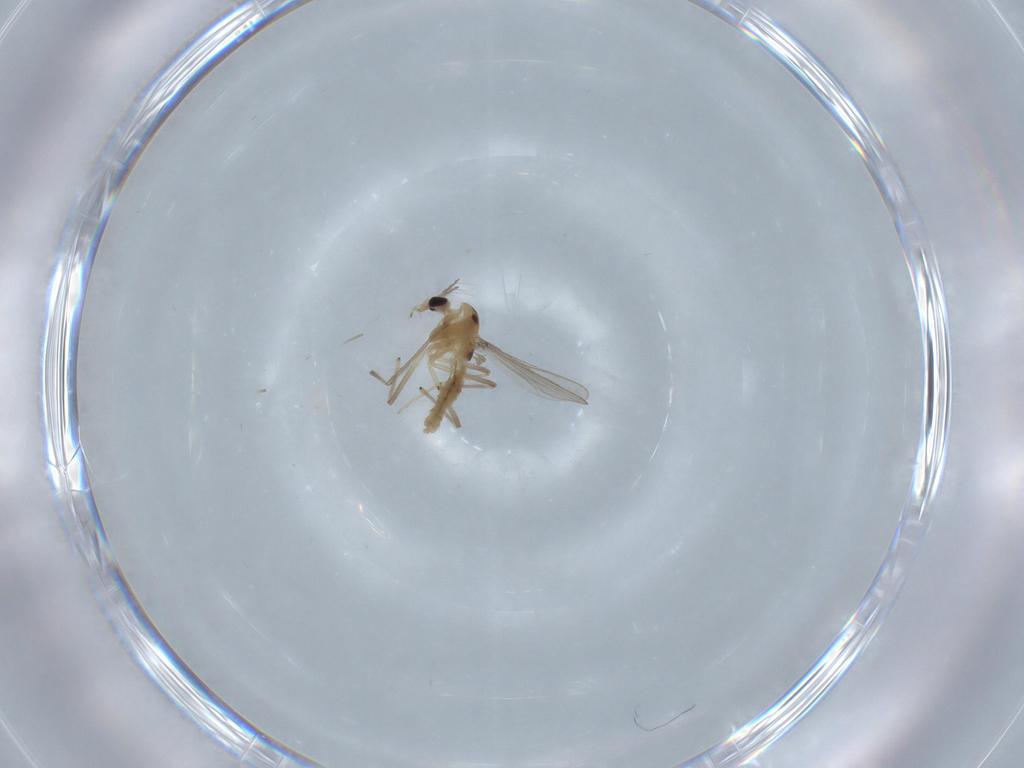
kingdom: Animalia
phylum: Arthropoda
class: Insecta
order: Diptera
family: Chironomidae
